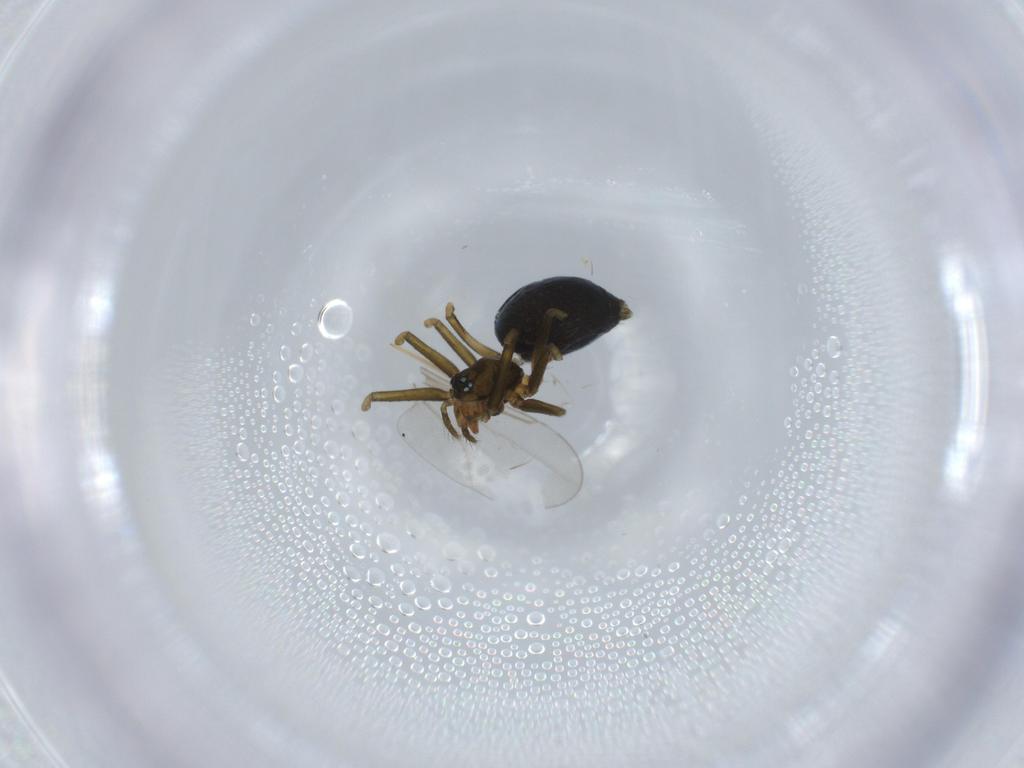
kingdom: Animalia
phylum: Arthropoda
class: Arachnida
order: Araneae
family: Linyphiidae
